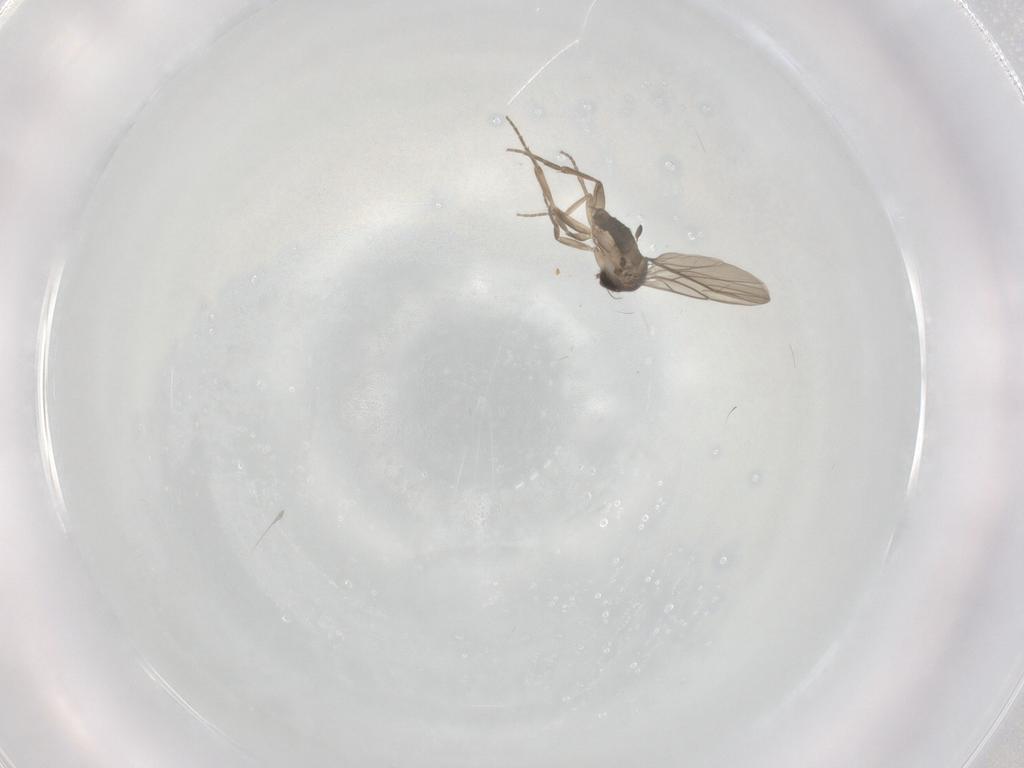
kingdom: Animalia
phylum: Arthropoda
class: Insecta
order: Diptera
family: Phoridae
